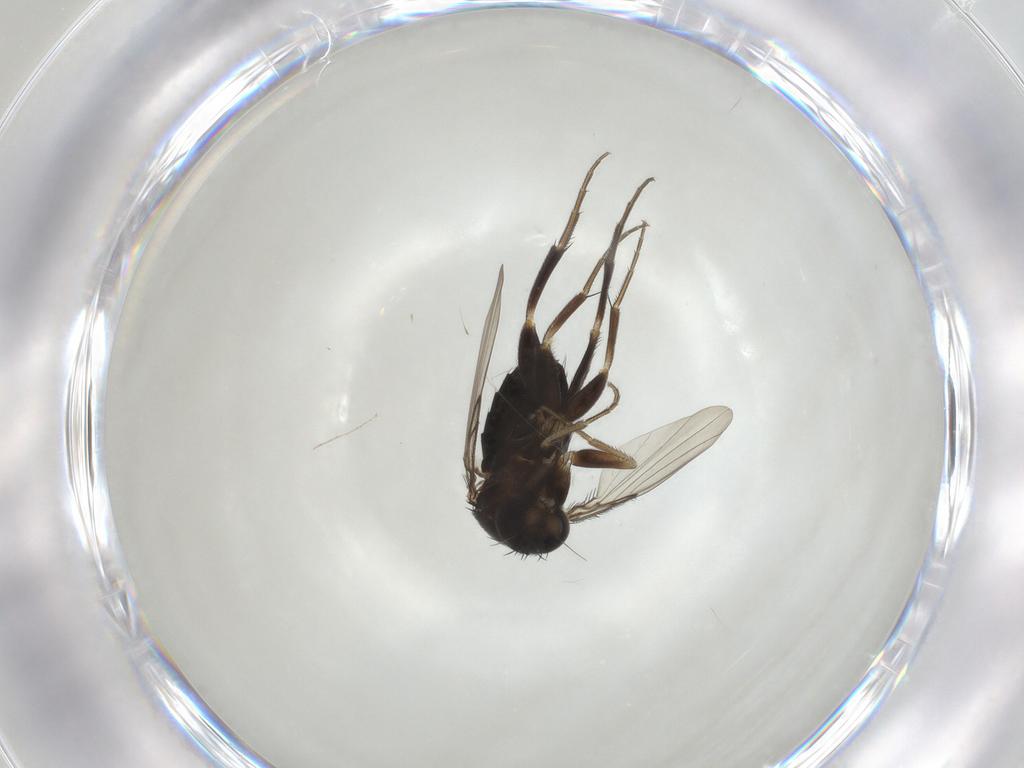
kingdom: Animalia
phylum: Arthropoda
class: Insecta
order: Diptera
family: Phoridae
